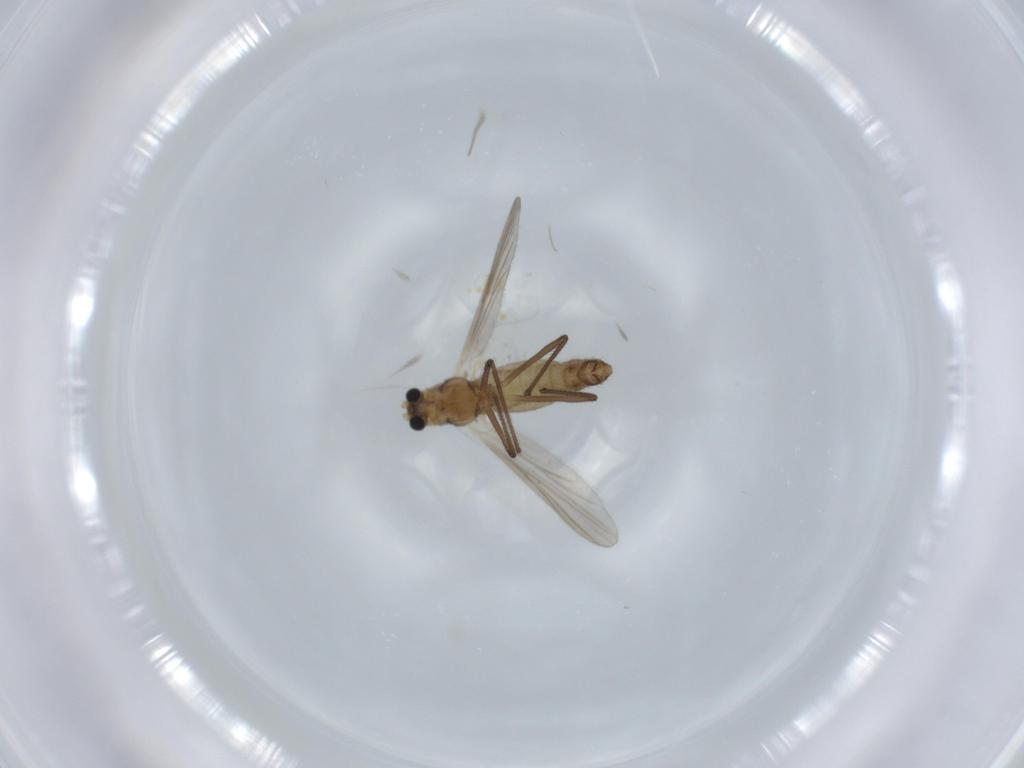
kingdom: Animalia
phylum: Arthropoda
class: Insecta
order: Diptera
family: Chironomidae
